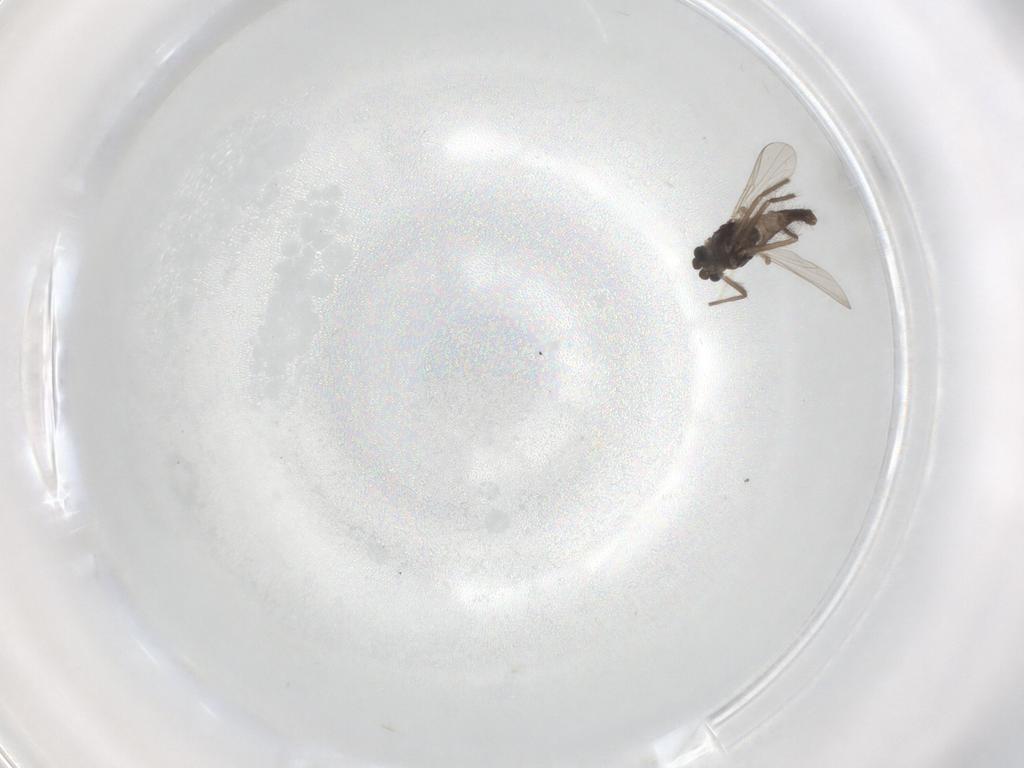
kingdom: Animalia
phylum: Arthropoda
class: Insecta
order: Diptera
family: Chironomidae
